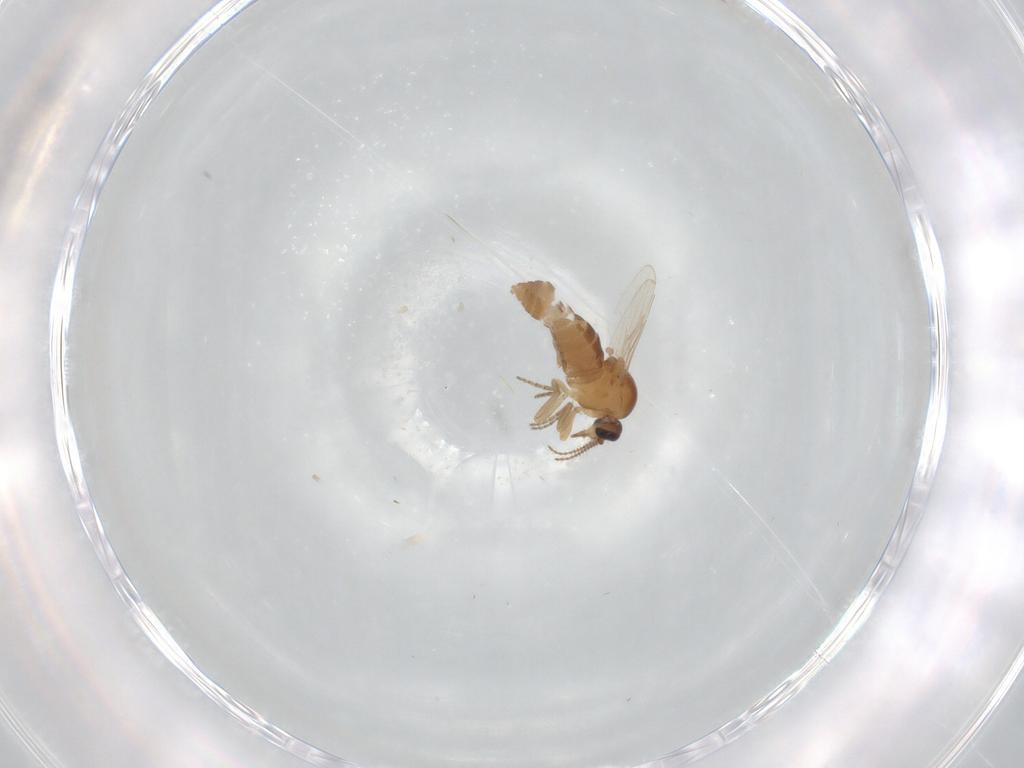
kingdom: Animalia
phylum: Arthropoda
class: Insecta
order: Diptera
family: Ceratopogonidae
